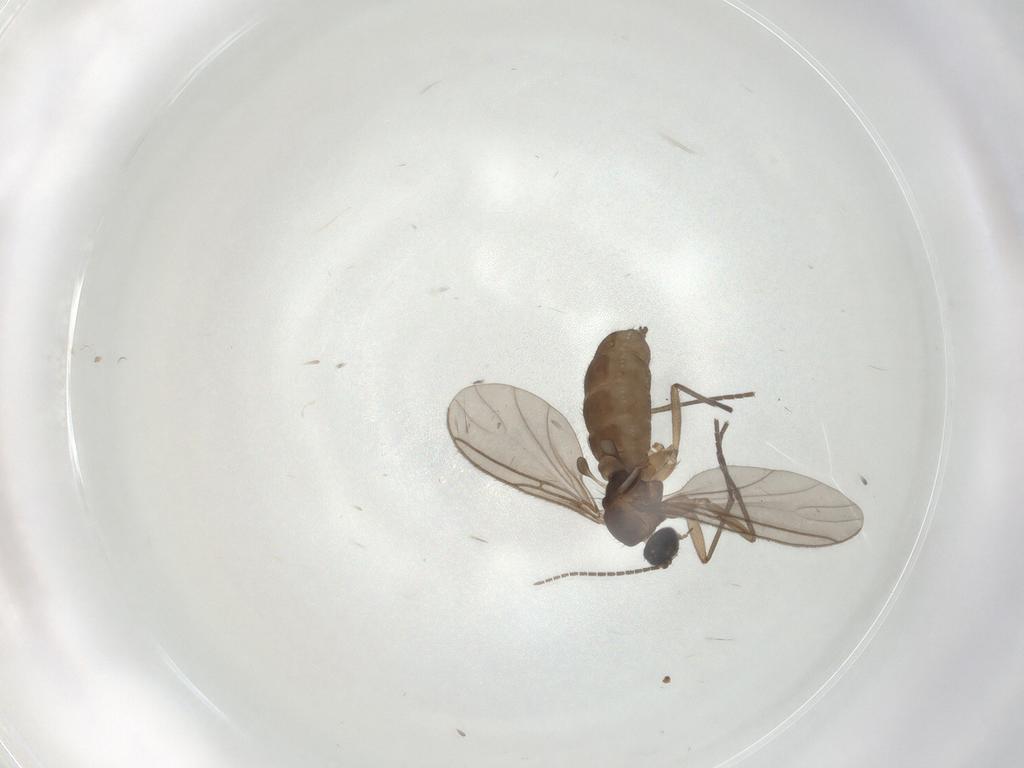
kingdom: Animalia
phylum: Arthropoda
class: Insecta
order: Diptera
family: Sciaridae
